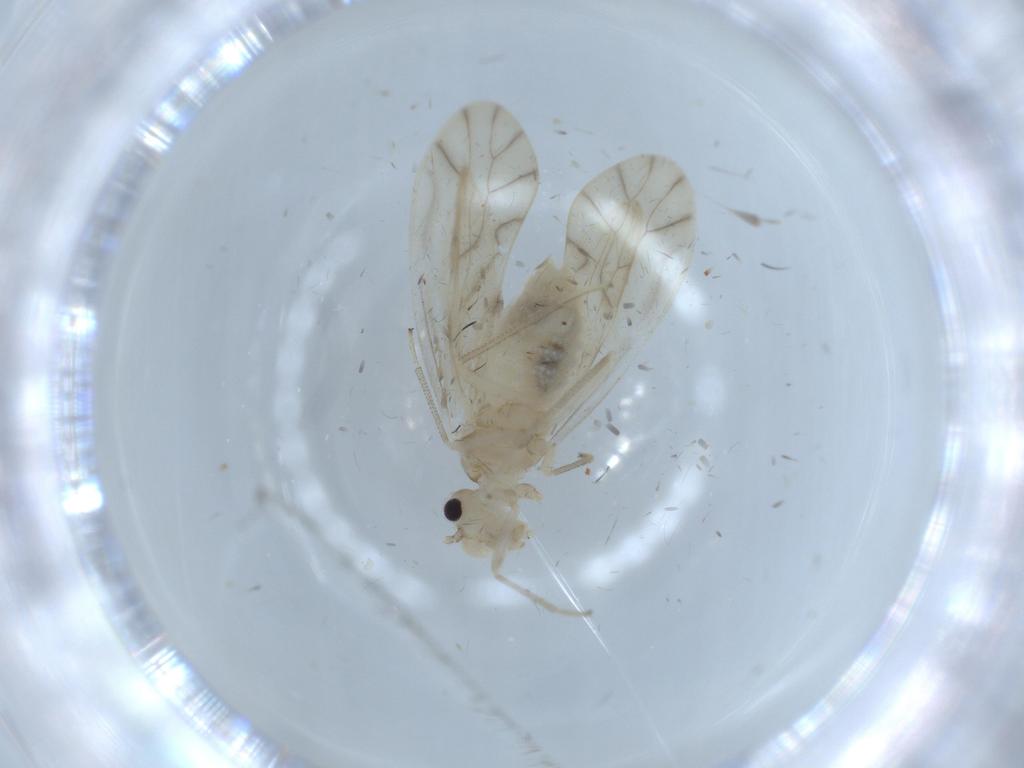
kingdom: Animalia
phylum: Arthropoda
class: Insecta
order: Psocodea
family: Caeciliusidae
